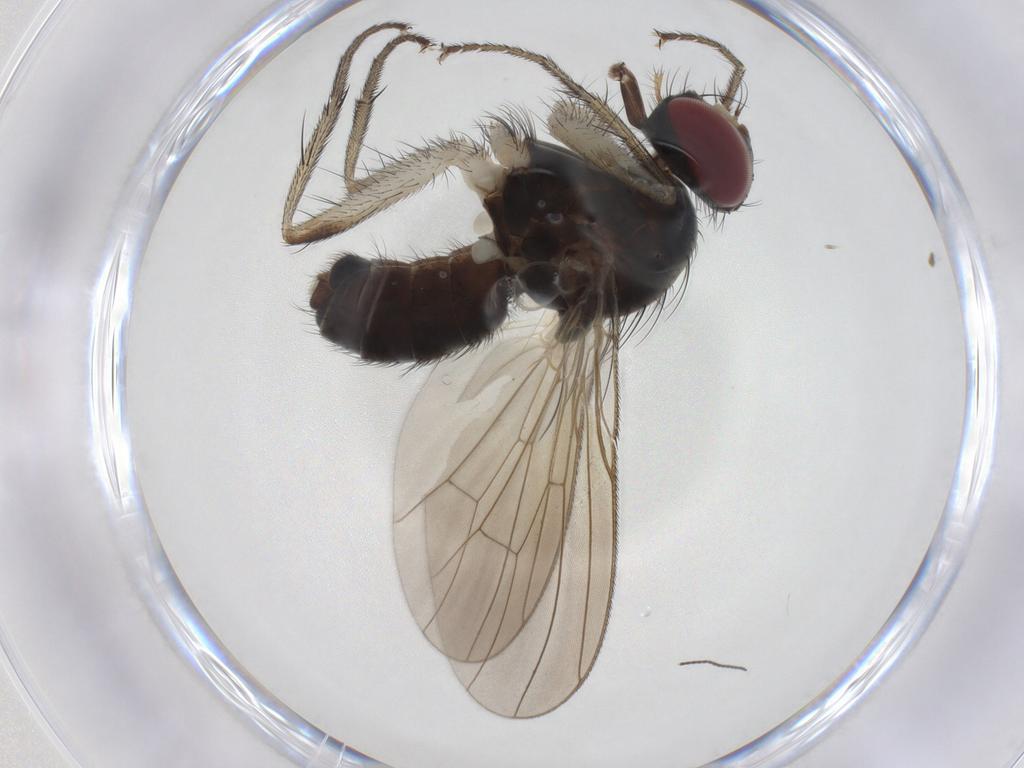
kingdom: Animalia
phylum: Arthropoda
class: Insecta
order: Diptera
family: Muscidae
